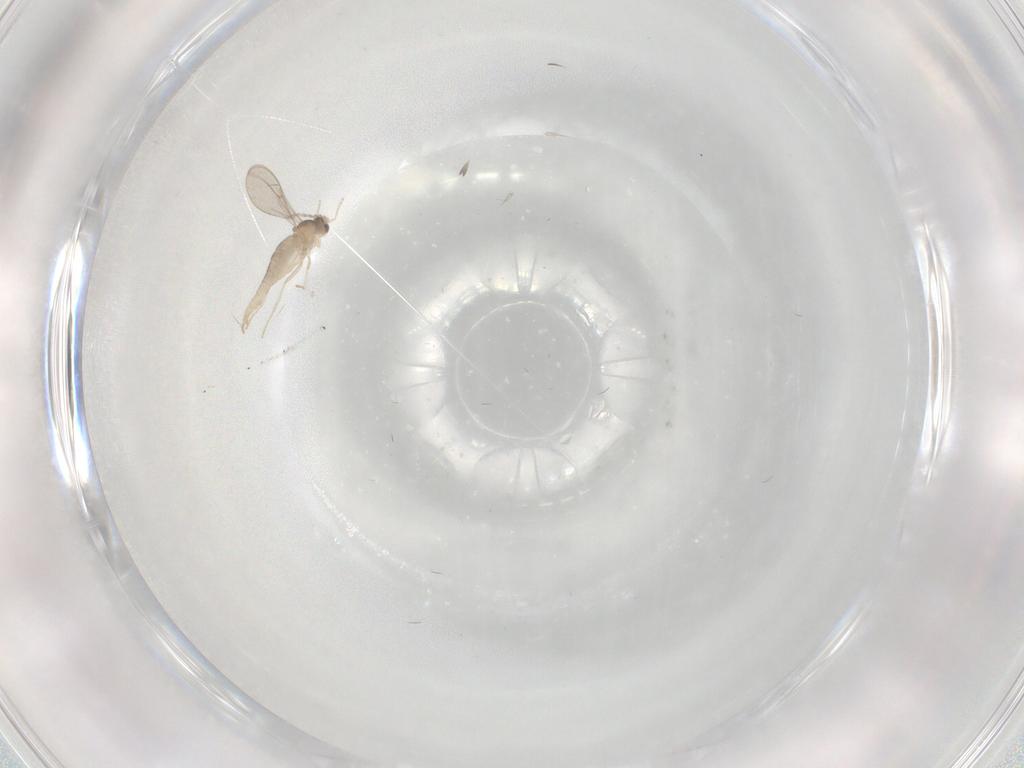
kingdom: Animalia
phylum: Arthropoda
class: Insecta
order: Diptera
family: Cecidomyiidae
